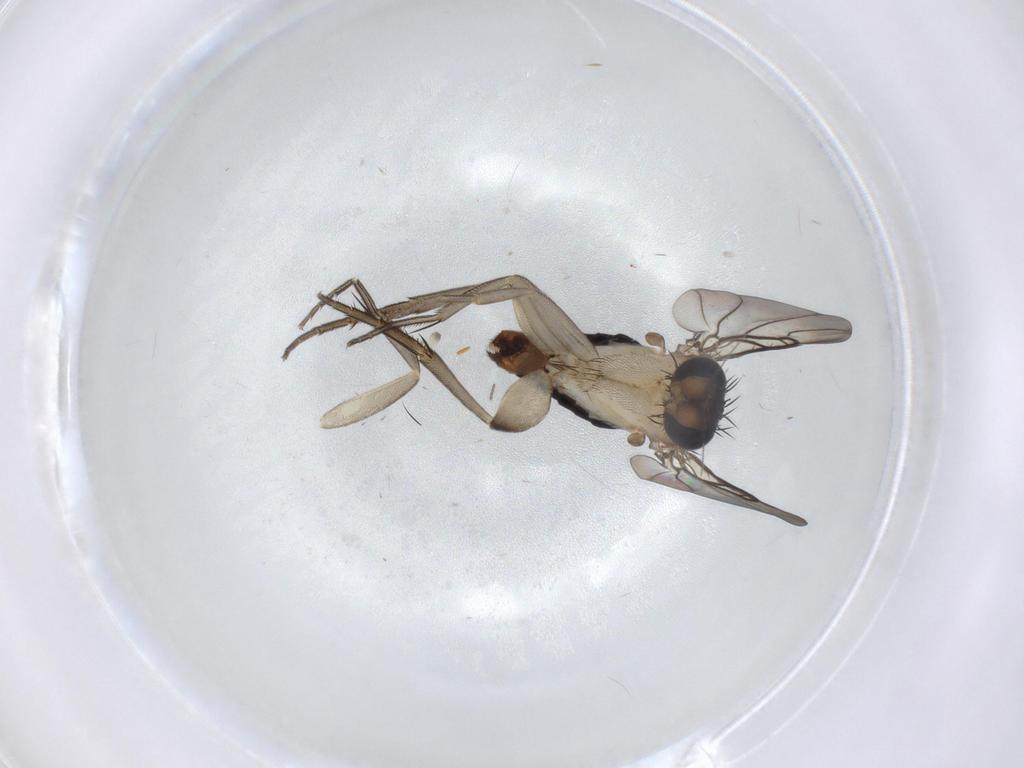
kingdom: Animalia
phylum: Arthropoda
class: Insecta
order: Diptera
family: Phoridae
